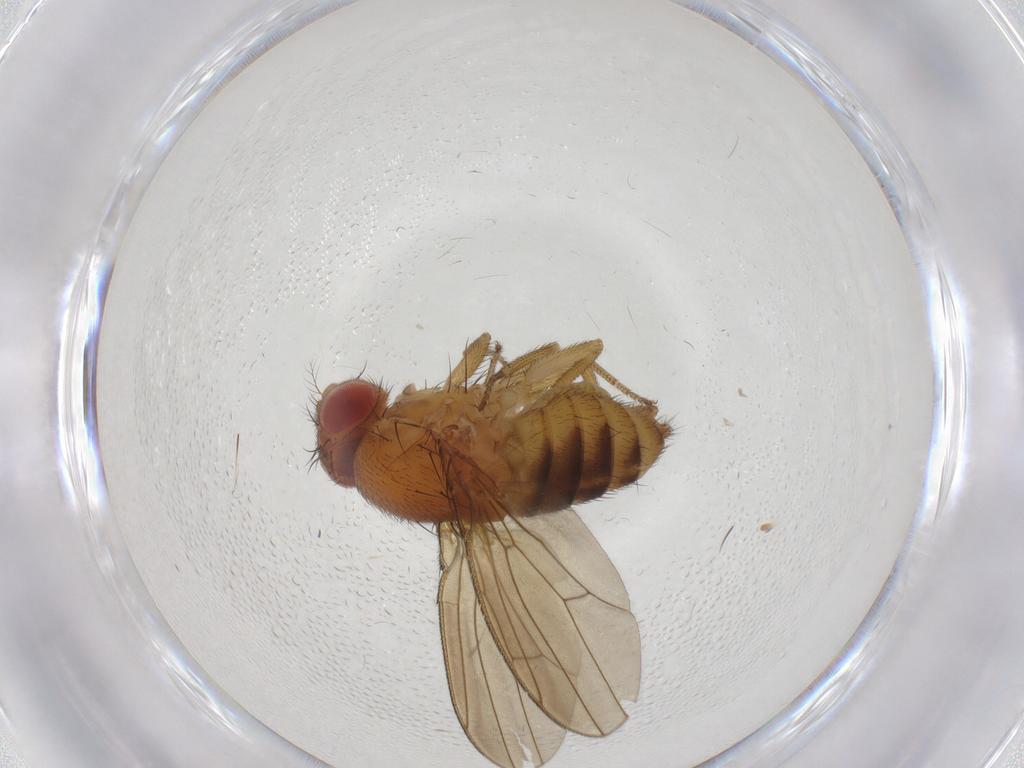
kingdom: Animalia
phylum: Arthropoda
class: Insecta
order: Diptera
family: Drosophilidae
